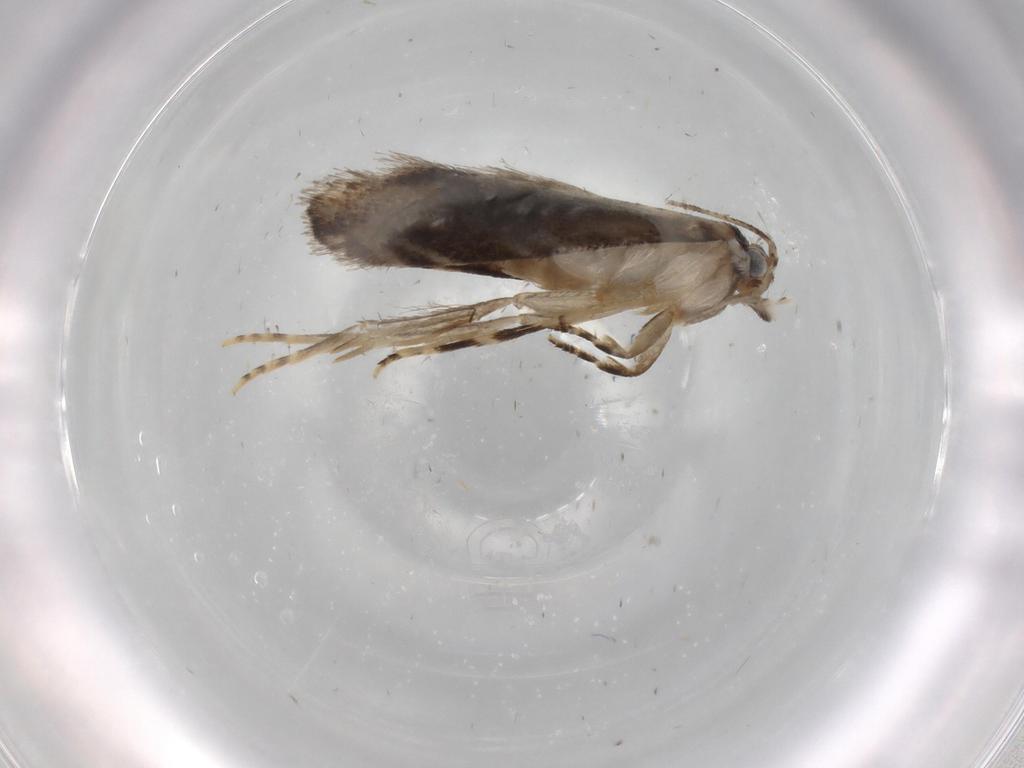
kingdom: Animalia
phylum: Arthropoda
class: Insecta
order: Lepidoptera
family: Tineidae
